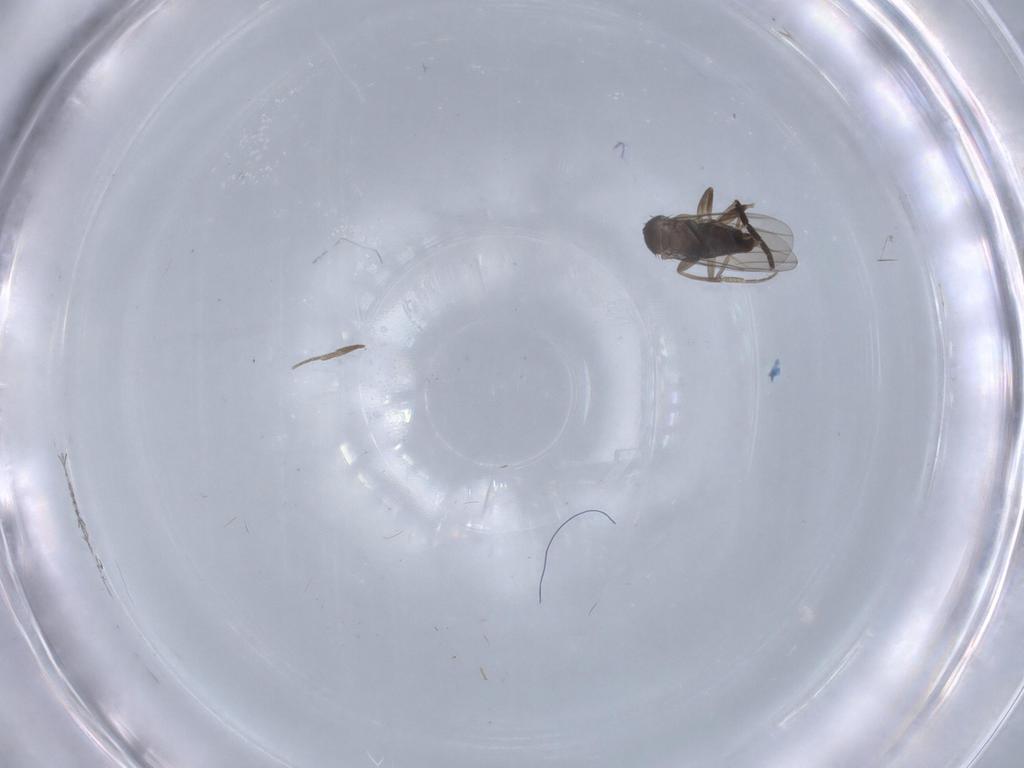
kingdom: Animalia
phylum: Arthropoda
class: Insecta
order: Diptera
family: Phoridae
